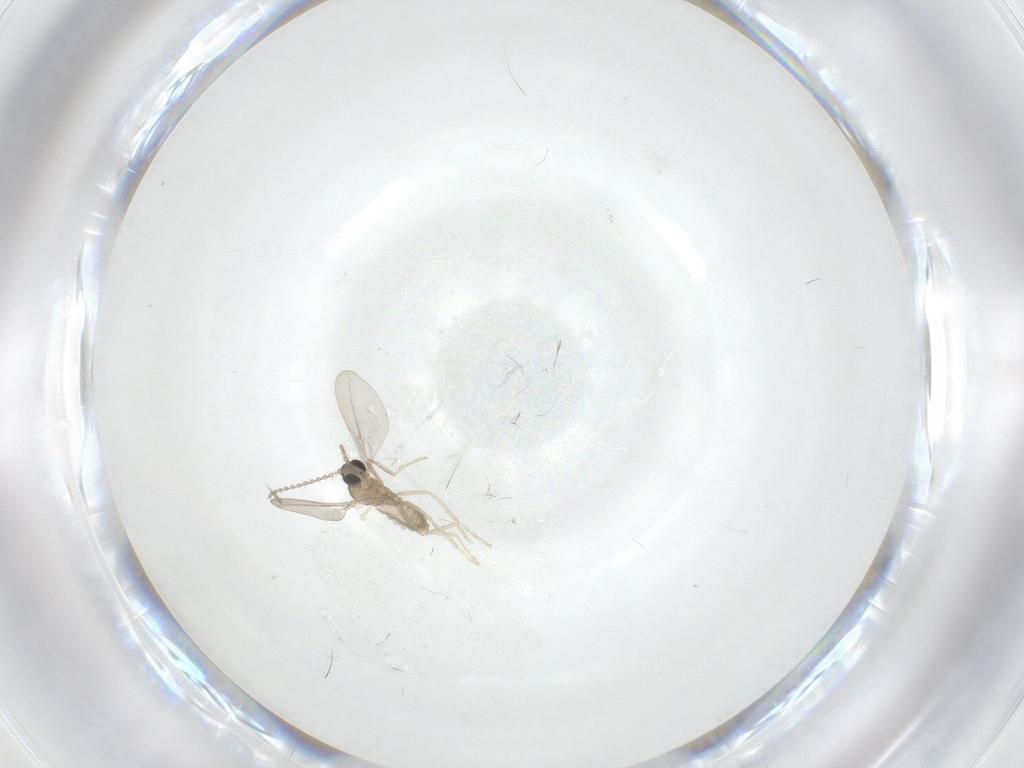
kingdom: Animalia
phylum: Arthropoda
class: Insecta
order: Diptera
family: Cecidomyiidae
